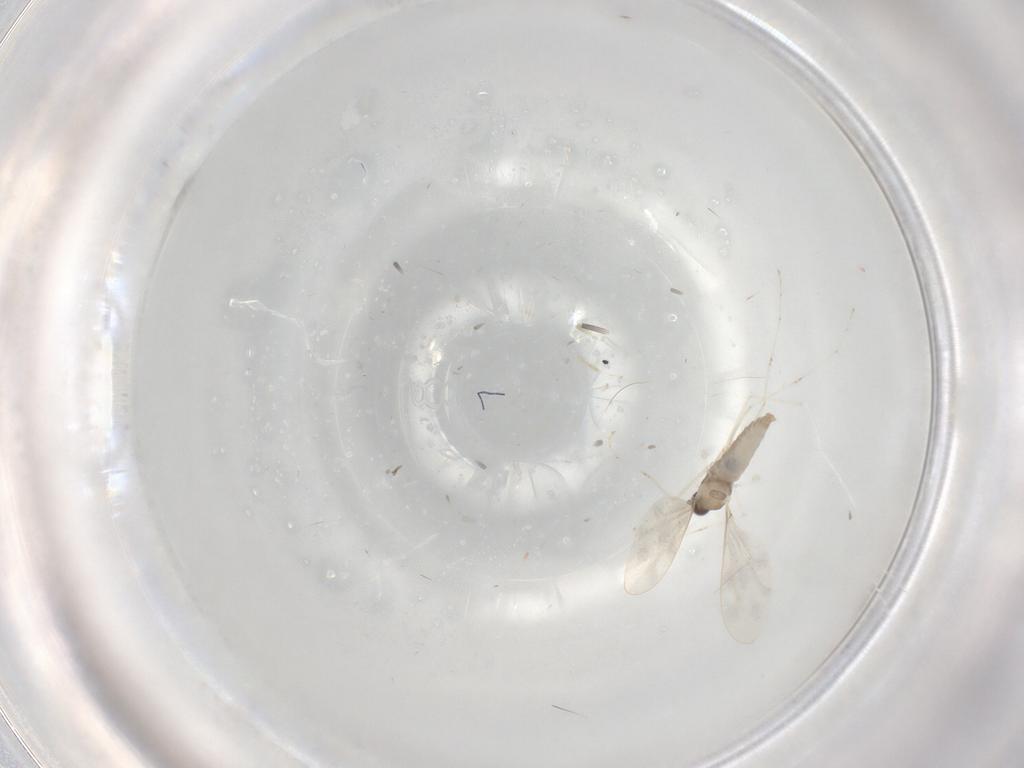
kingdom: Animalia
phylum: Arthropoda
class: Insecta
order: Diptera
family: Cecidomyiidae
